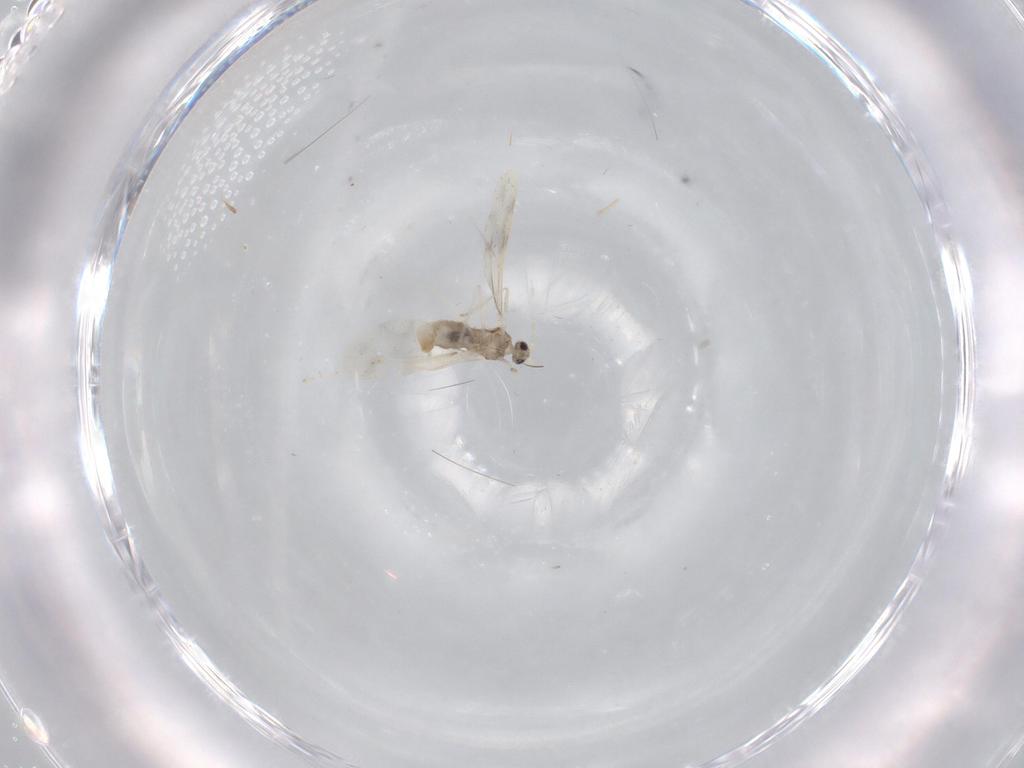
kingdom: Animalia
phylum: Arthropoda
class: Insecta
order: Diptera
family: Cecidomyiidae
